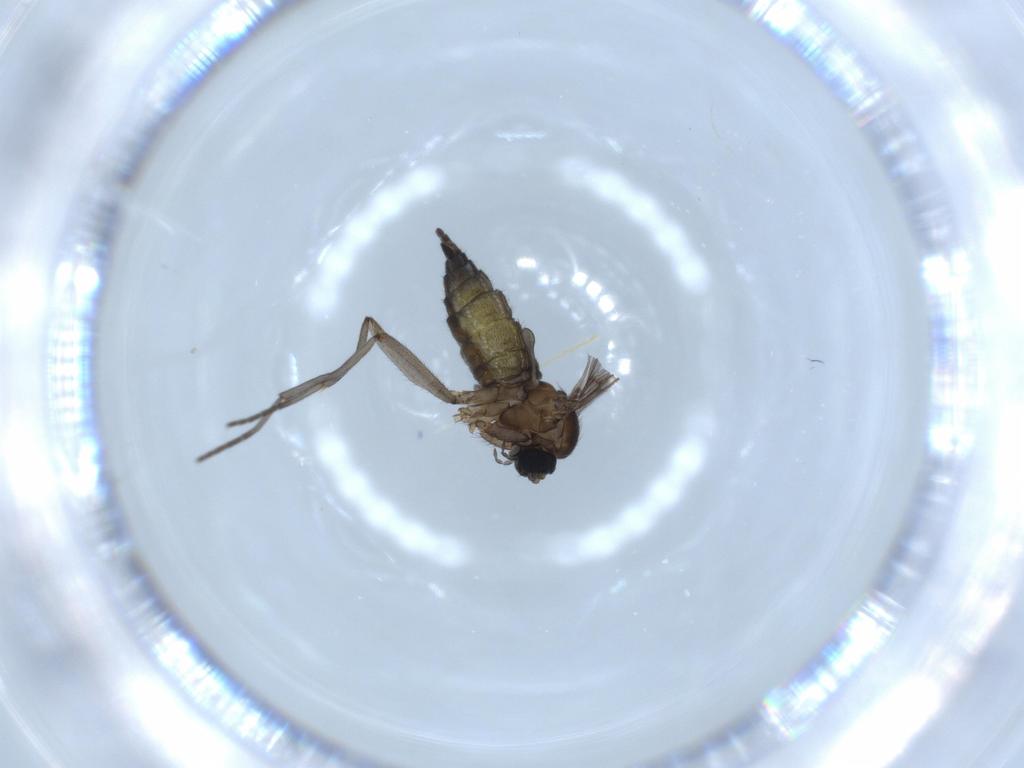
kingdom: Animalia
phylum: Arthropoda
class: Insecta
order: Diptera
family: Sciaridae
